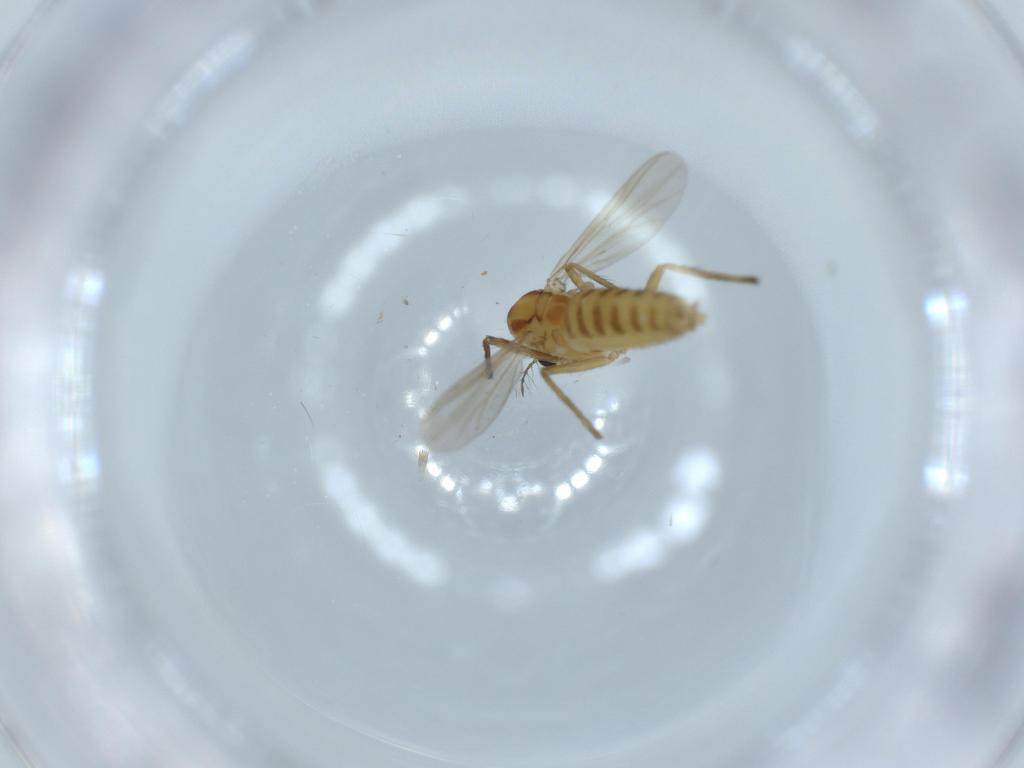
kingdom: Animalia
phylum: Arthropoda
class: Insecta
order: Diptera
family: Chironomidae
